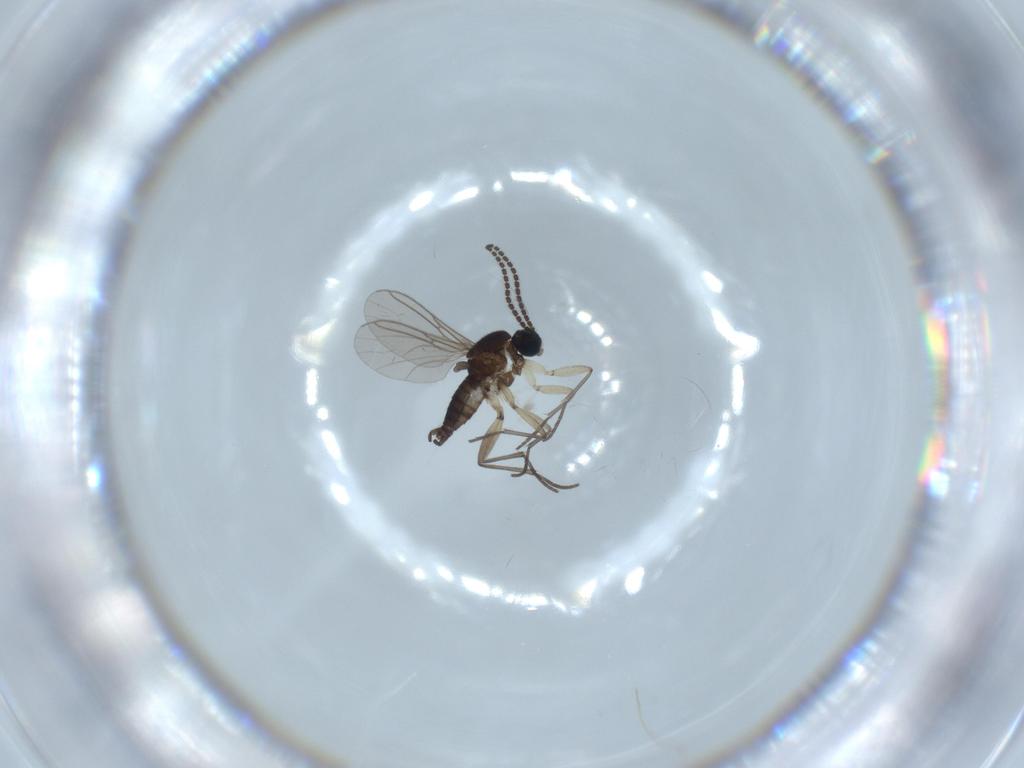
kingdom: Animalia
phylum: Arthropoda
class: Insecta
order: Diptera
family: Sciaridae
